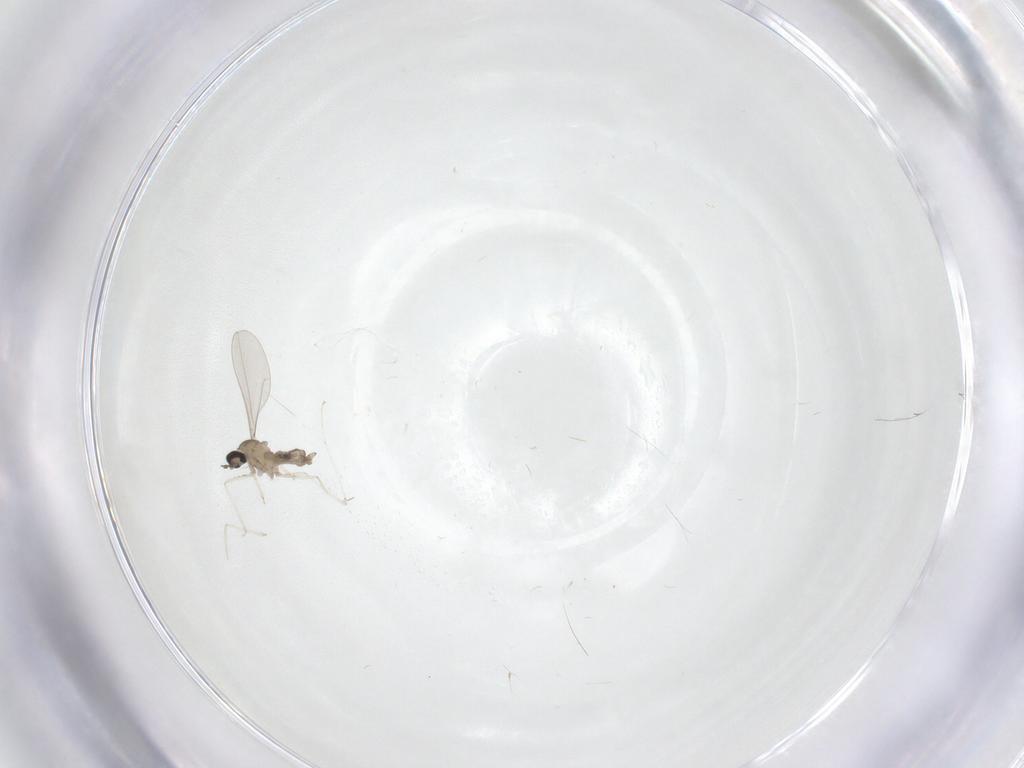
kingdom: Animalia
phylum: Arthropoda
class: Insecta
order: Diptera
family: Cecidomyiidae
